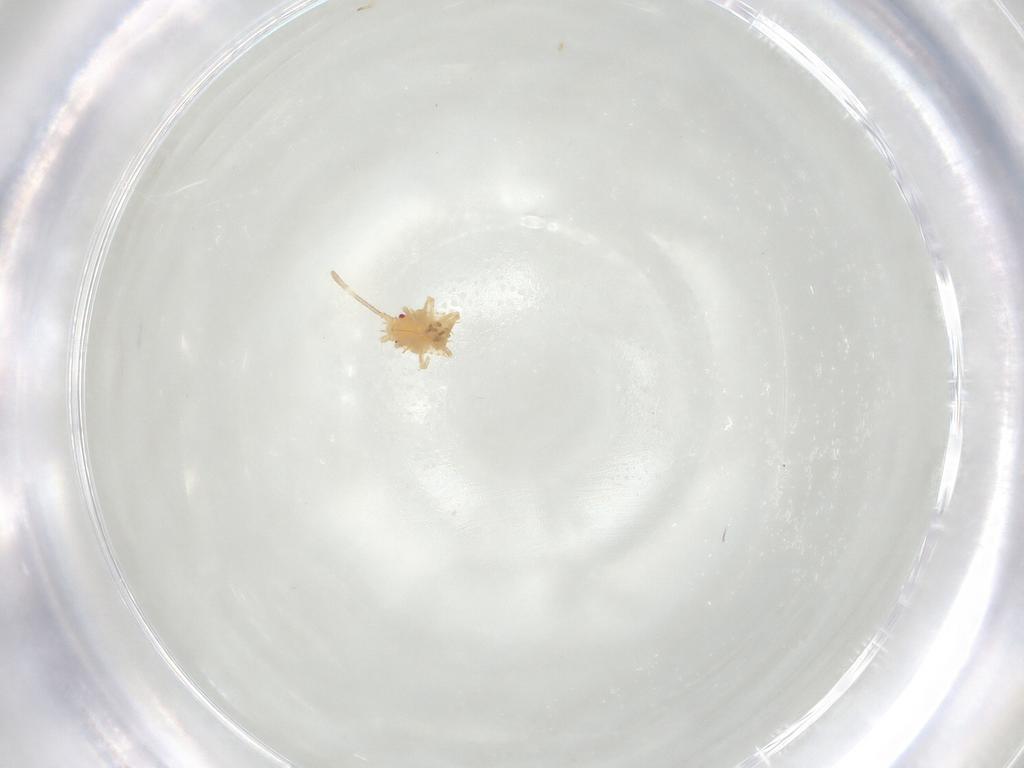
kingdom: Animalia
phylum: Arthropoda
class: Insecta
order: Hemiptera
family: Tingidae
